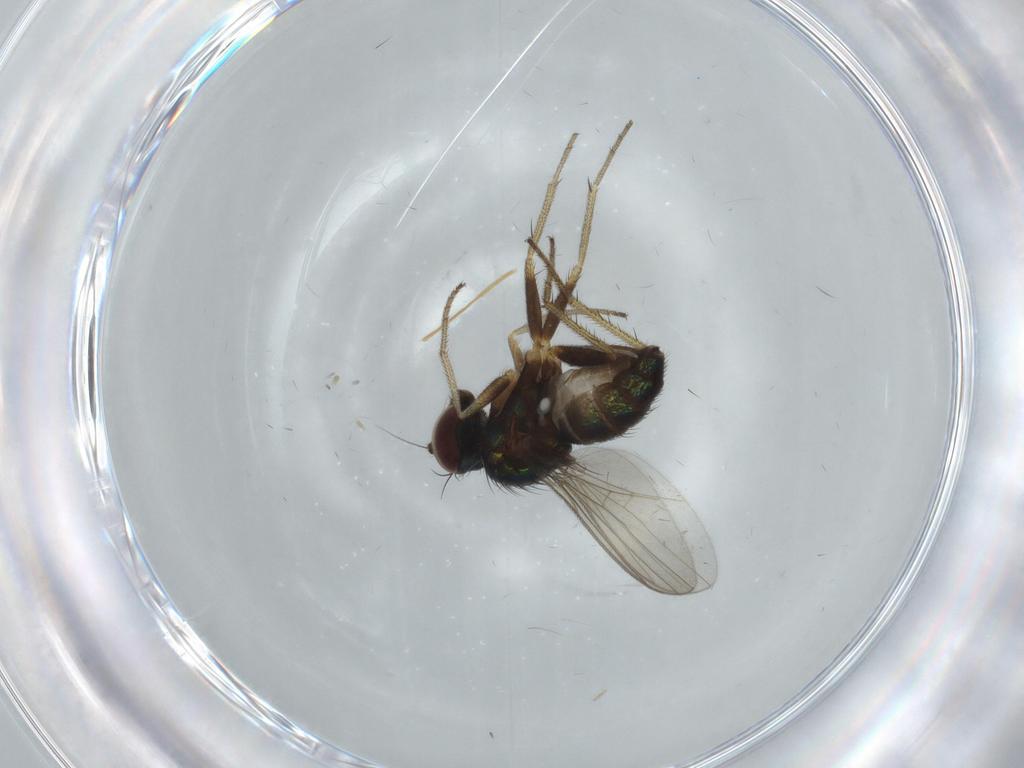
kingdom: Animalia
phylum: Arthropoda
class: Insecta
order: Diptera
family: Cecidomyiidae
